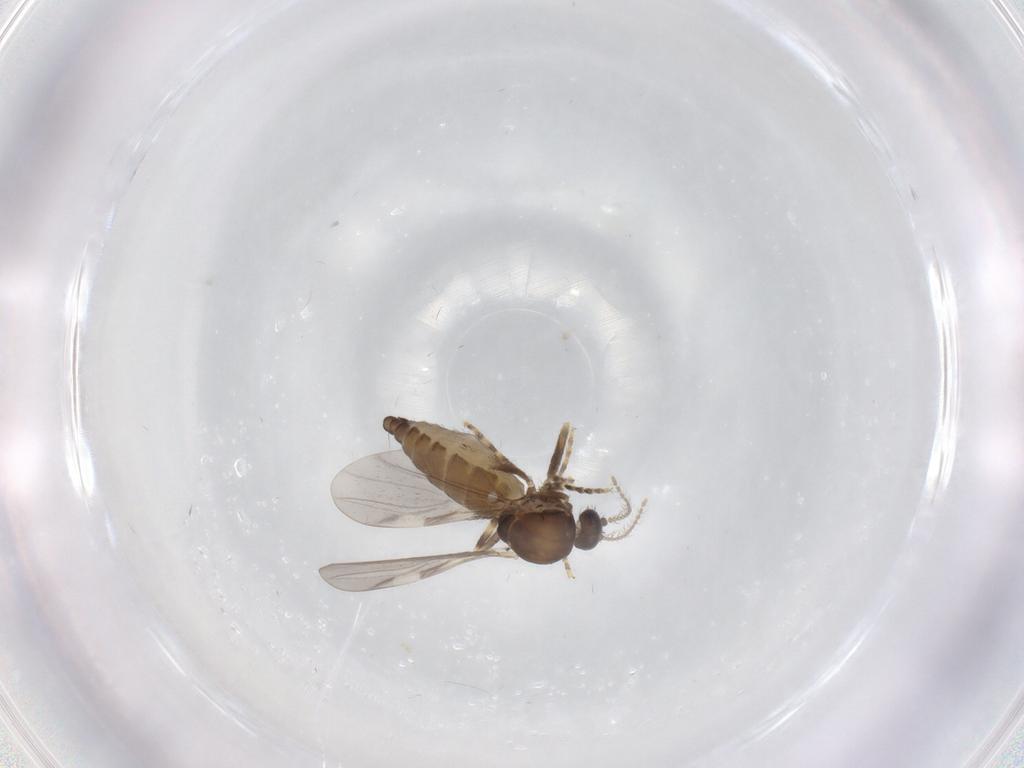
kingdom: Animalia
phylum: Arthropoda
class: Insecta
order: Diptera
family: Ceratopogonidae
